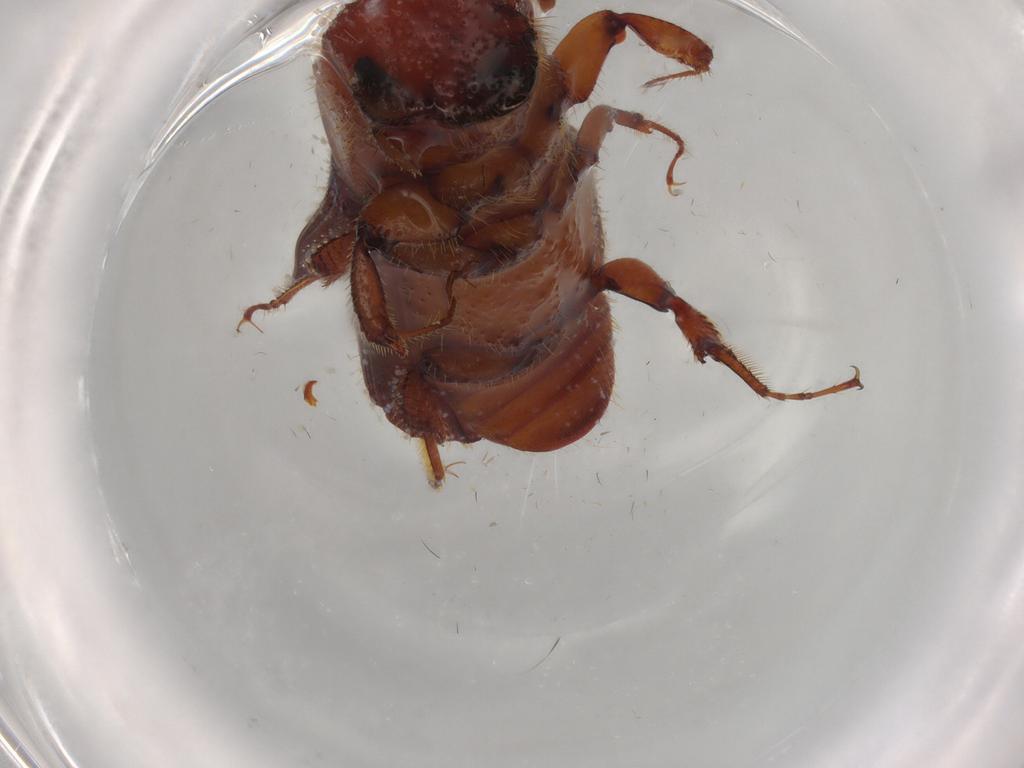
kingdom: Animalia
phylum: Arthropoda
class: Insecta
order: Coleoptera
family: Curculionidae
